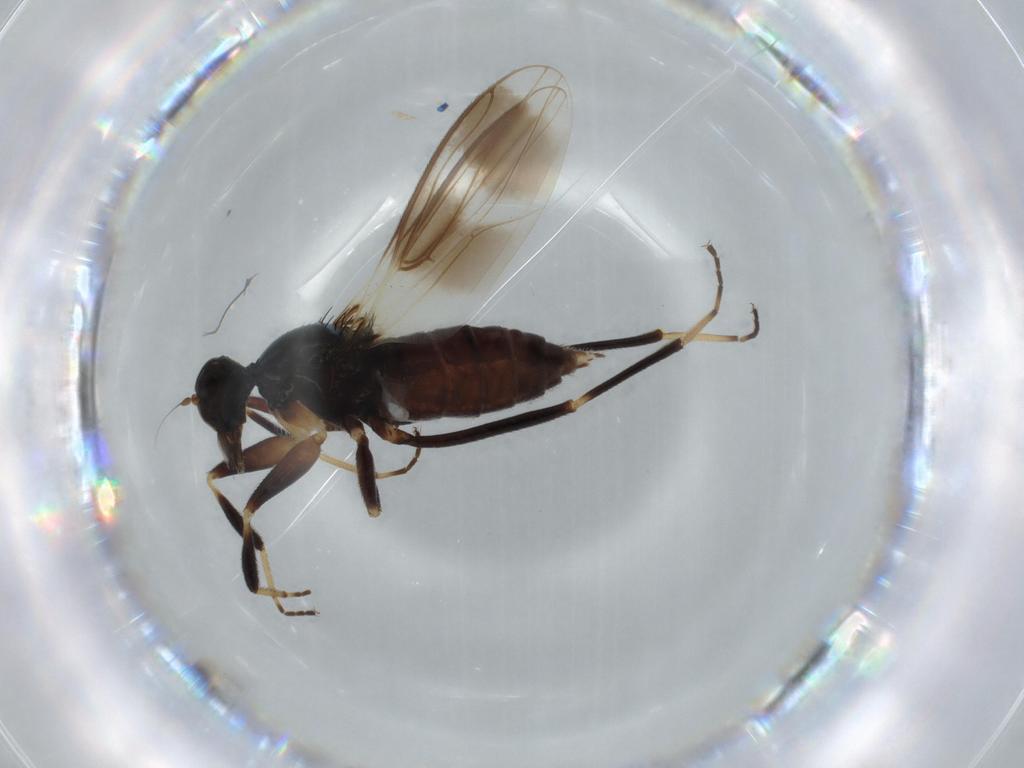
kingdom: Animalia
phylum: Arthropoda
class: Insecta
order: Diptera
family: Hybotidae
